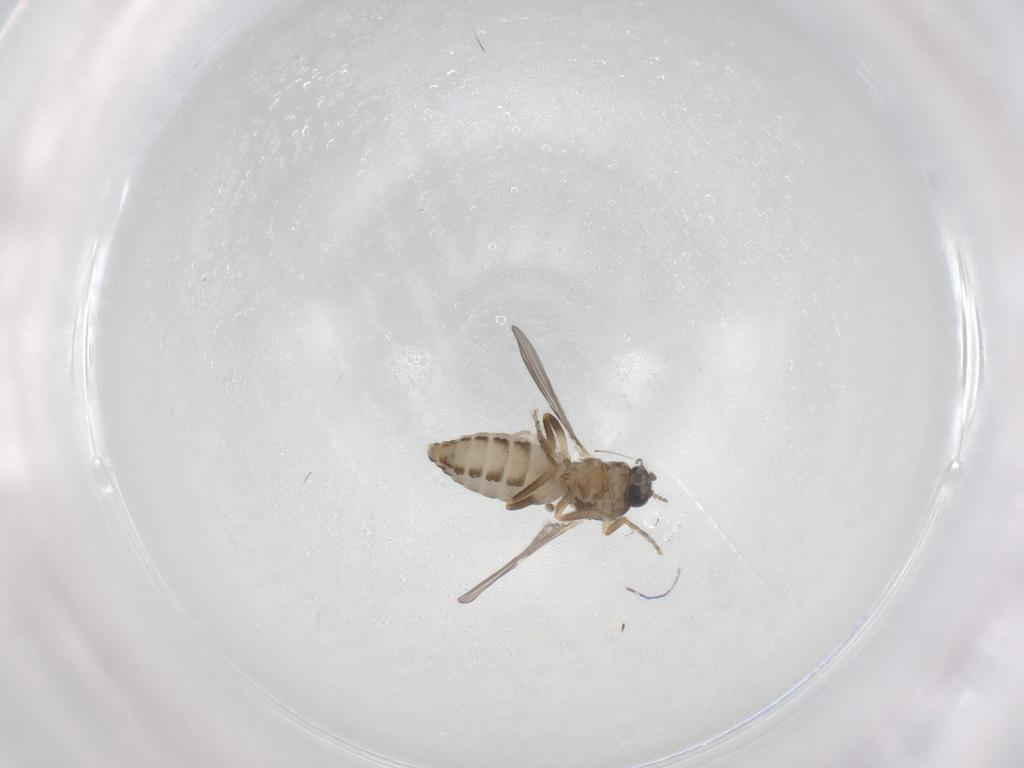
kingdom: Animalia
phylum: Arthropoda
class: Insecta
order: Diptera
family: Ceratopogonidae
